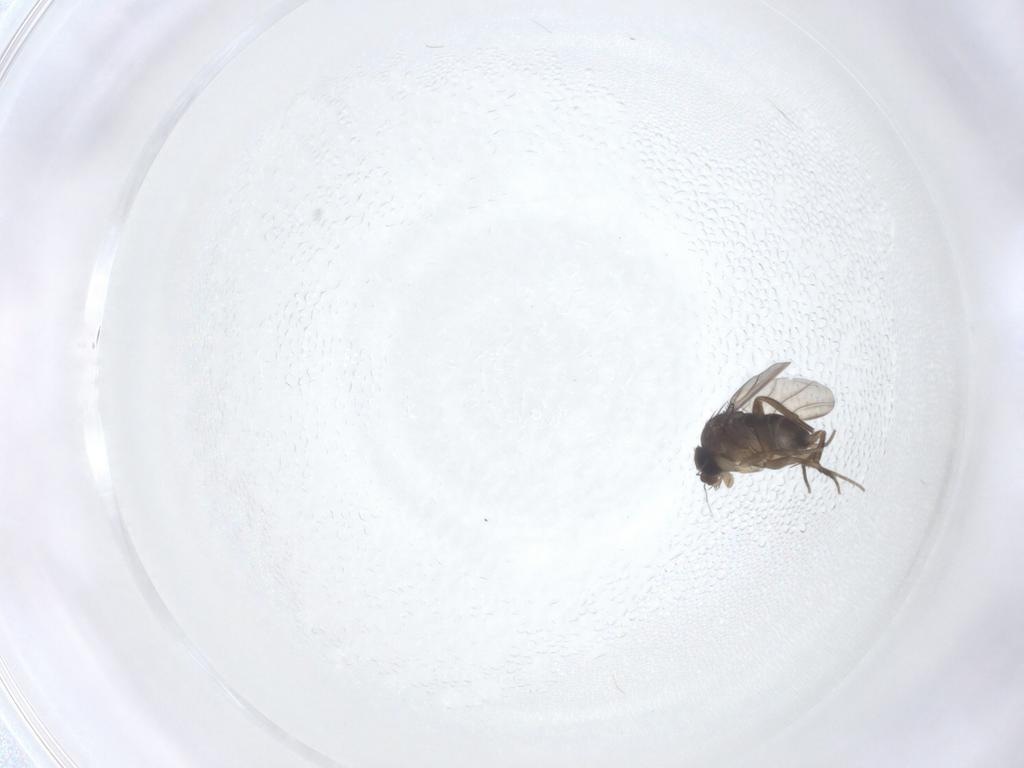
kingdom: Animalia
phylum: Arthropoda
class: Insecta
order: Diptera
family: Phoridae
